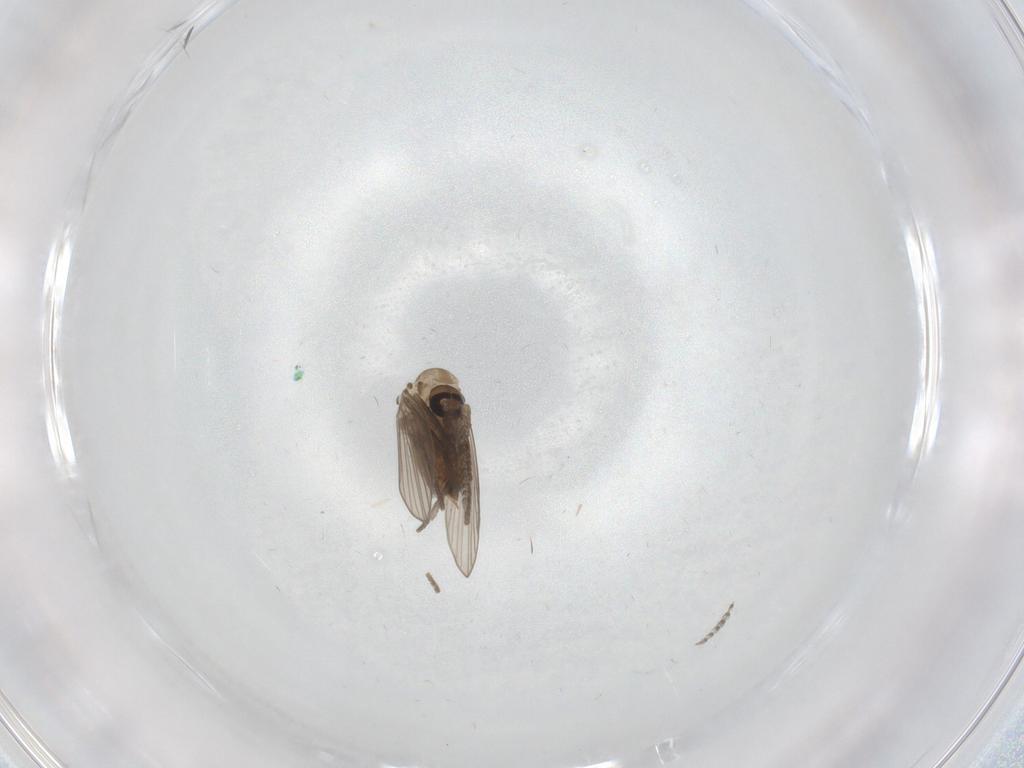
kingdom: Animalia
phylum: Arthropoda
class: Insecta
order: Diptera
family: Psychodidae
